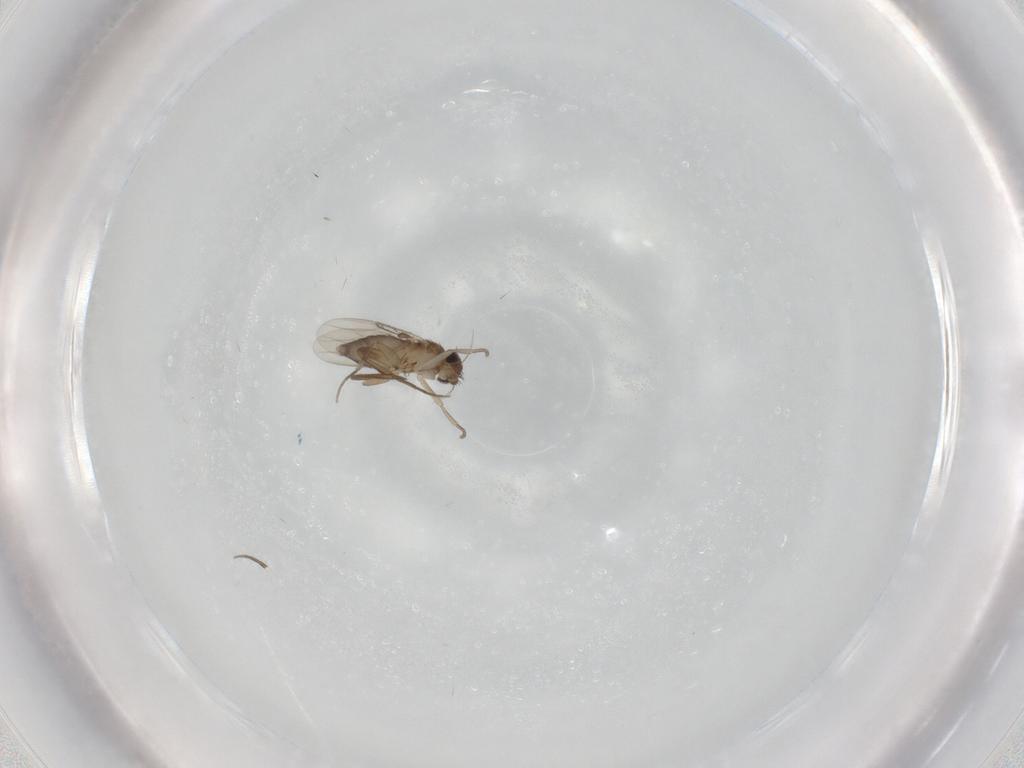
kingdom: Animalia
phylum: Arthropoda
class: Insecta
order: Diptera
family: Phoridae
